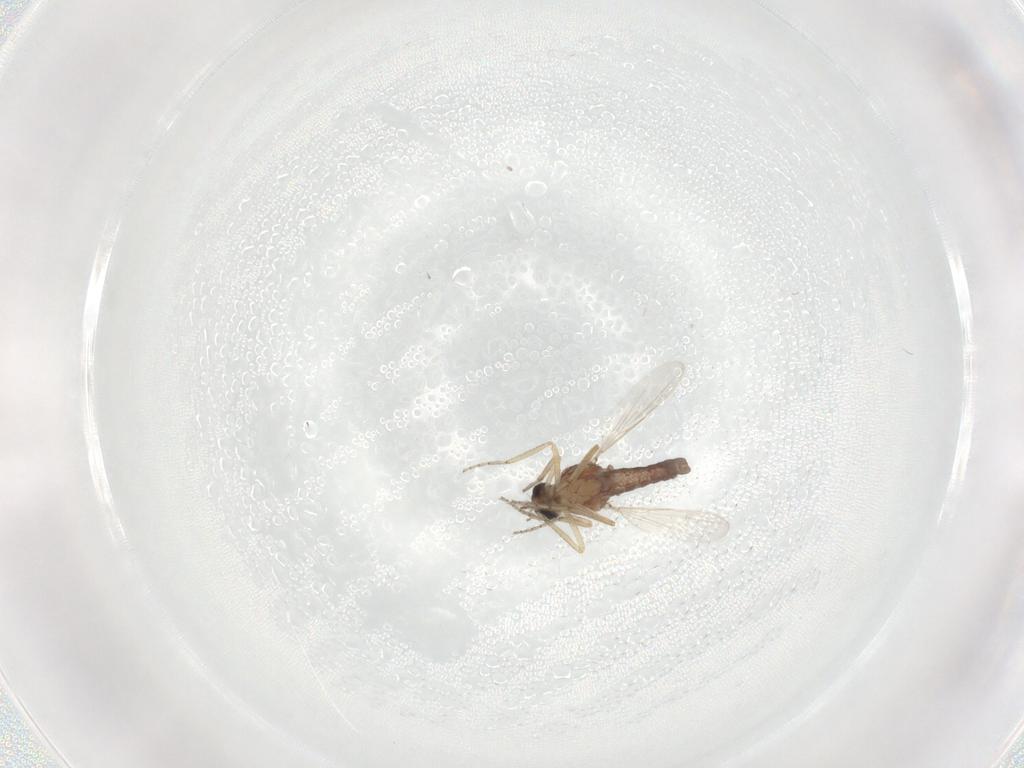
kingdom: Animalia
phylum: Arthropoda
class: Insecta
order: Diptera
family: Ceratopogonidae
